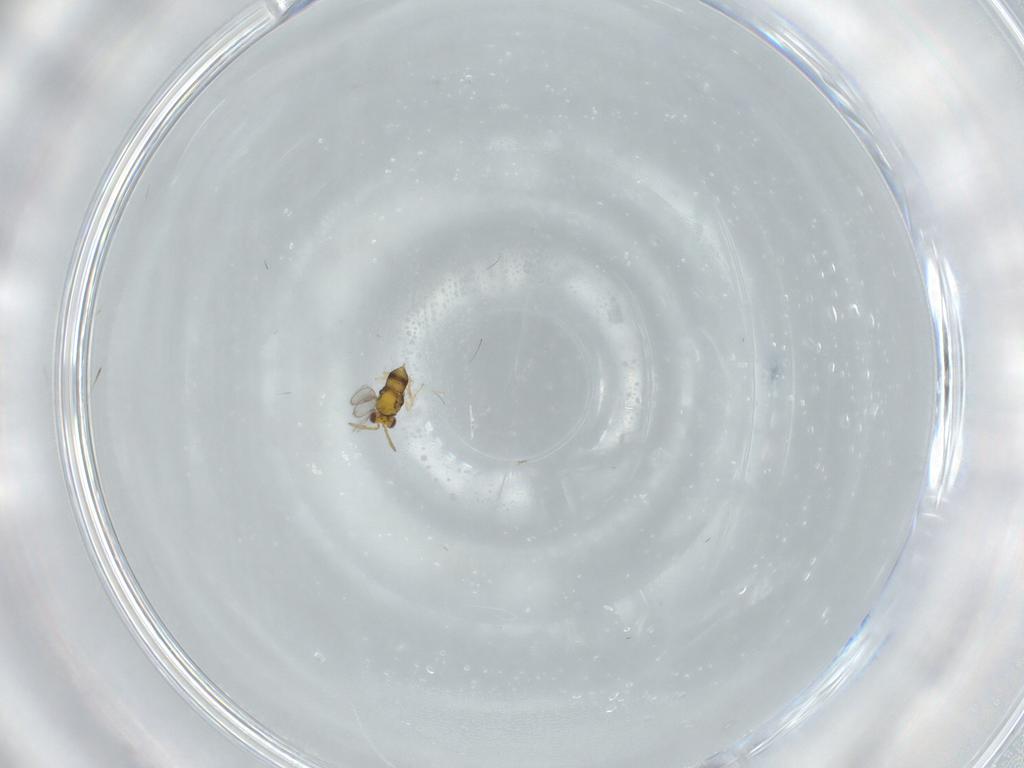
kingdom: Animalia
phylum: Arthropoda
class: Insecta
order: Hymenoptera
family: Aphelinidae
